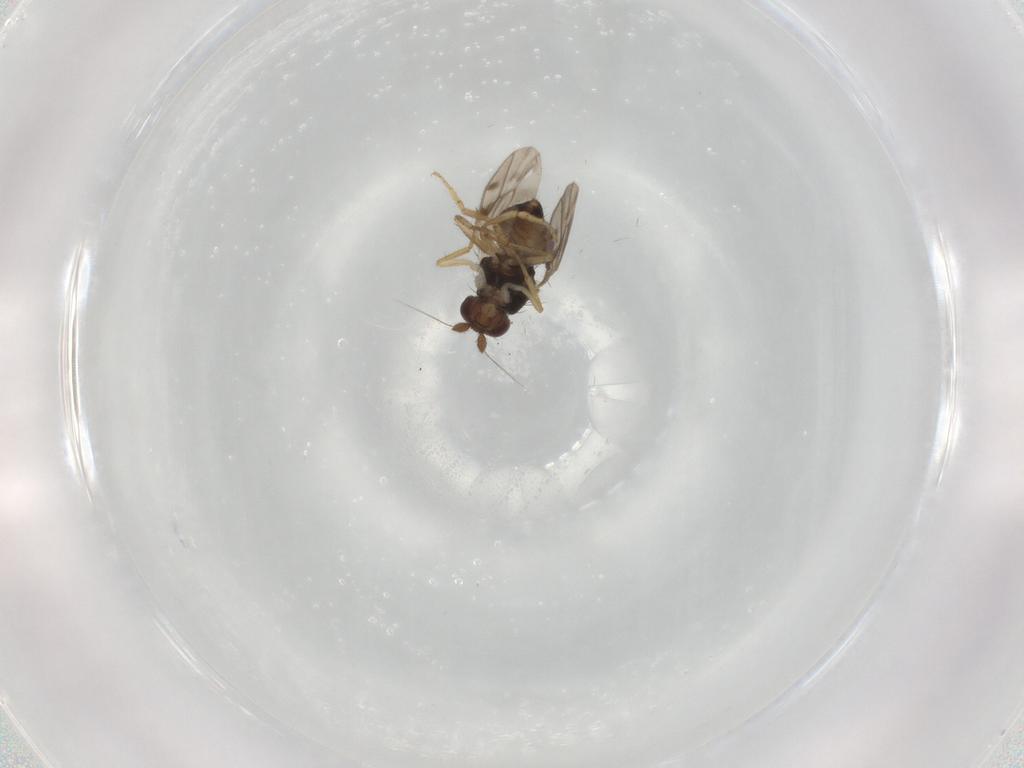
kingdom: Animalia
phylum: Arthropoda
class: Insecta
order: Diptera
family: Sphaeroceridae
